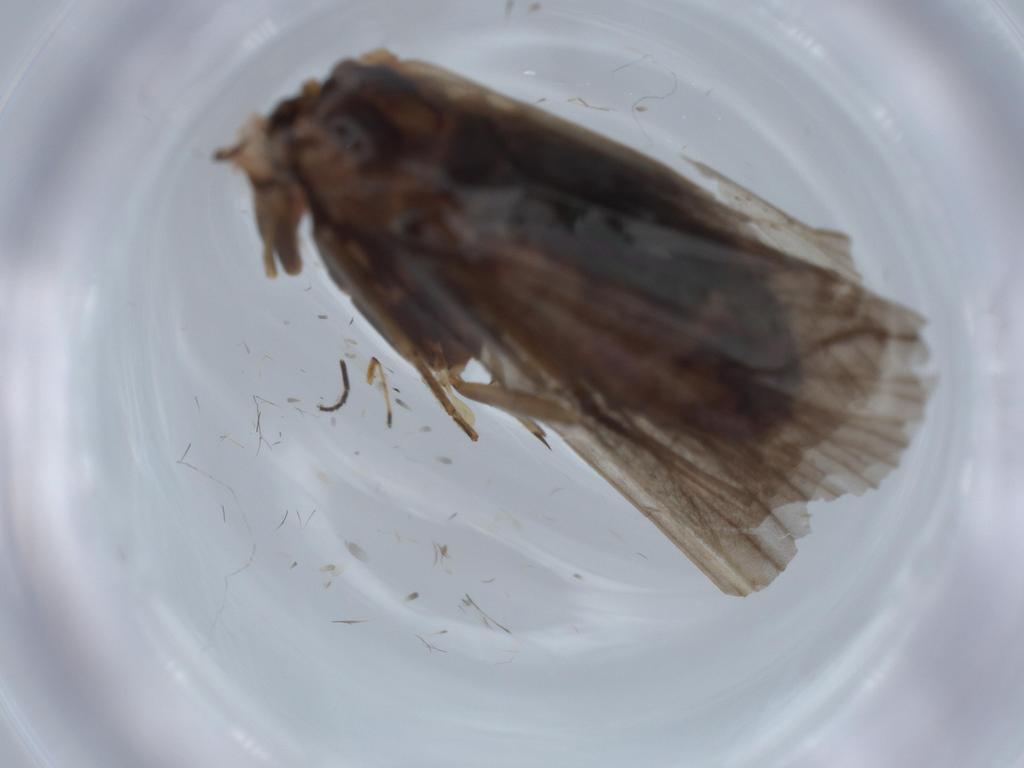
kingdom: Animalia
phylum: Arthropoda
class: Insecta
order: Trichoptera
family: Uenoidae
